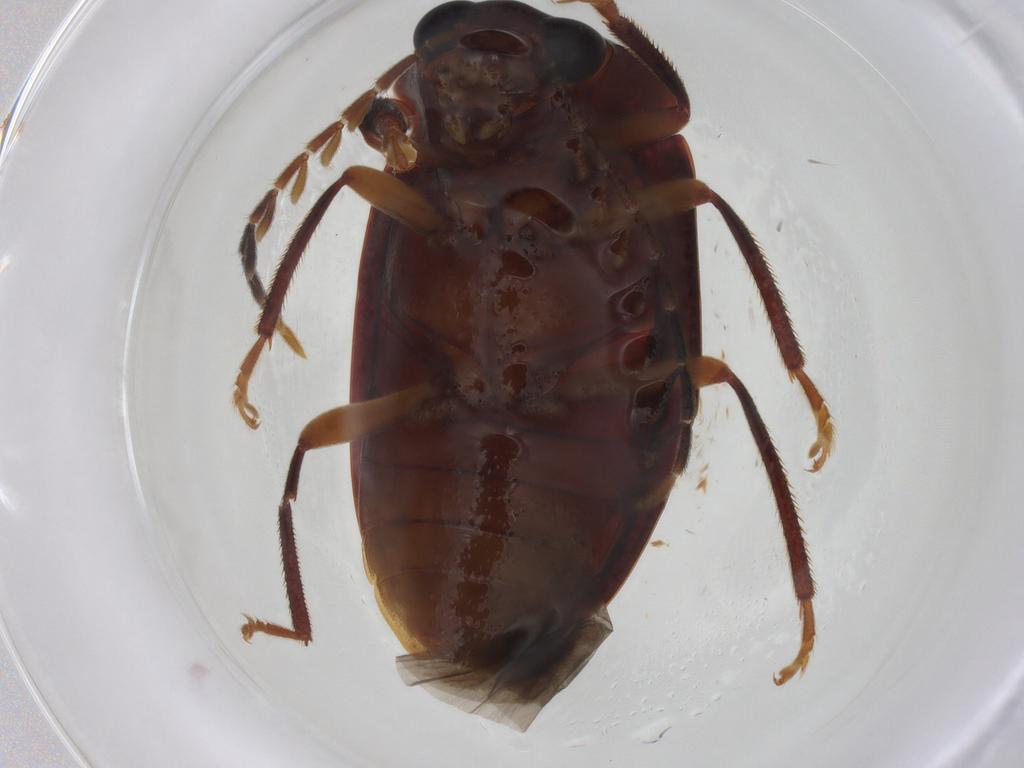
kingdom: Animalia
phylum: Arthropoda
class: Insecta
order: Coleoptera
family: Ptilodactylidae
